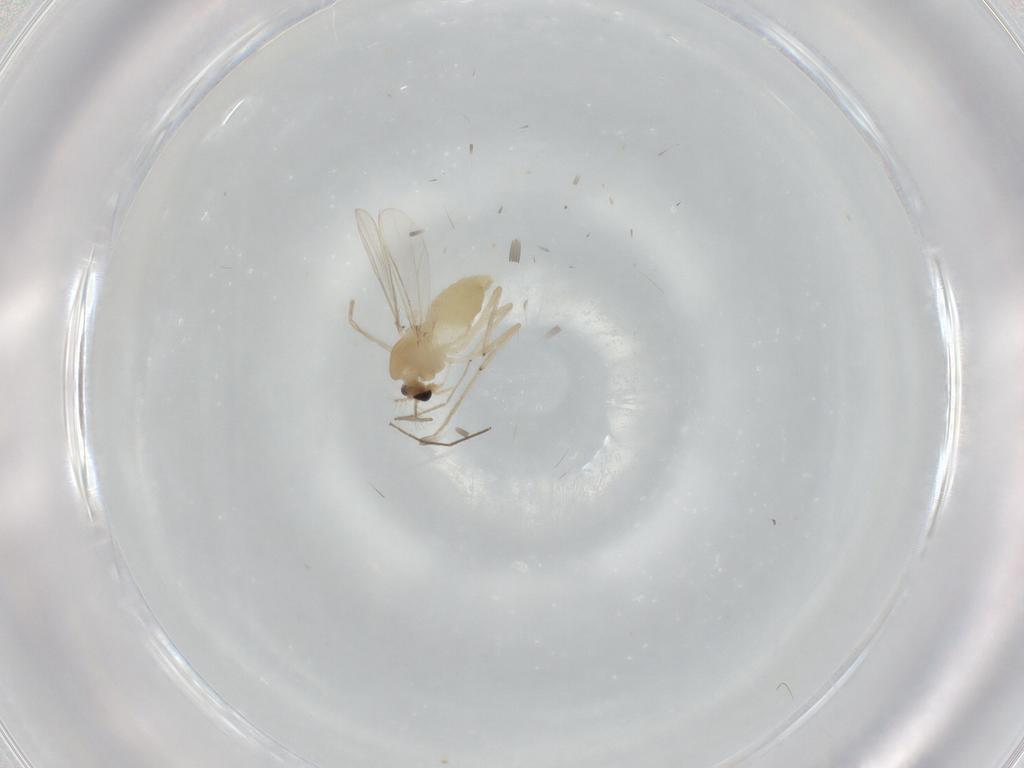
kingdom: Animalia
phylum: Arthropoda
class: Insecta
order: Diptera
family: Chironomidae
